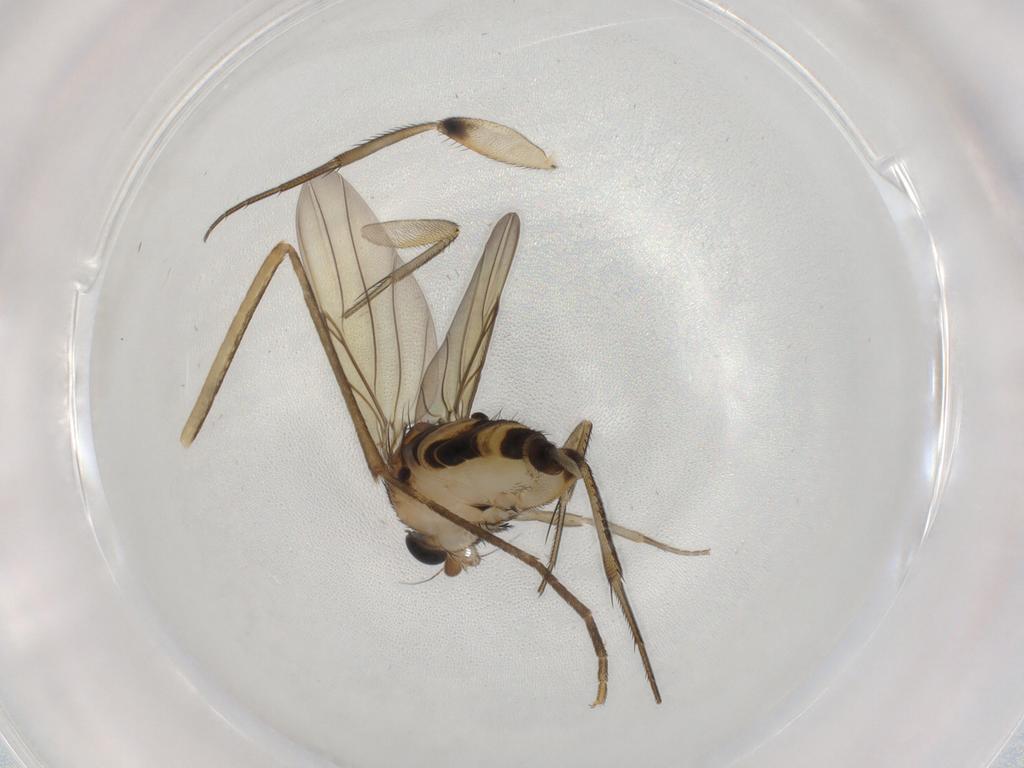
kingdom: Animalia
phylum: Arthropoda
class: Insecta
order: Diptera
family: Phoridae
